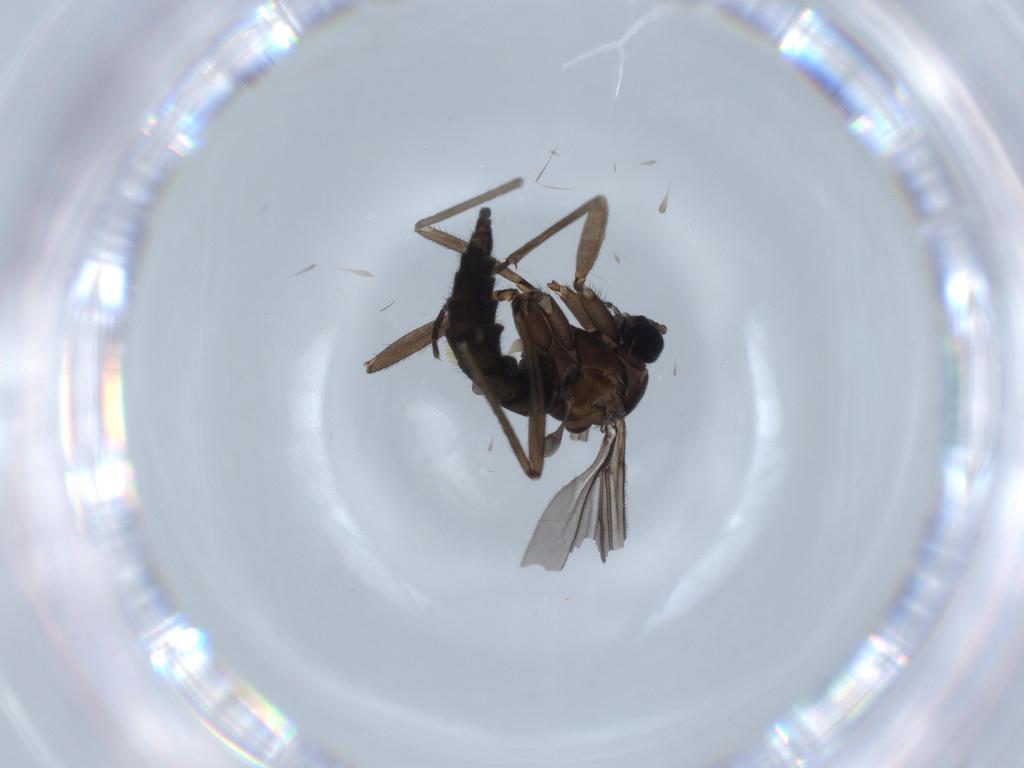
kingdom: Animalia
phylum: Arthropoda
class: Insecta
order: Diptera
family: Sciaridae
